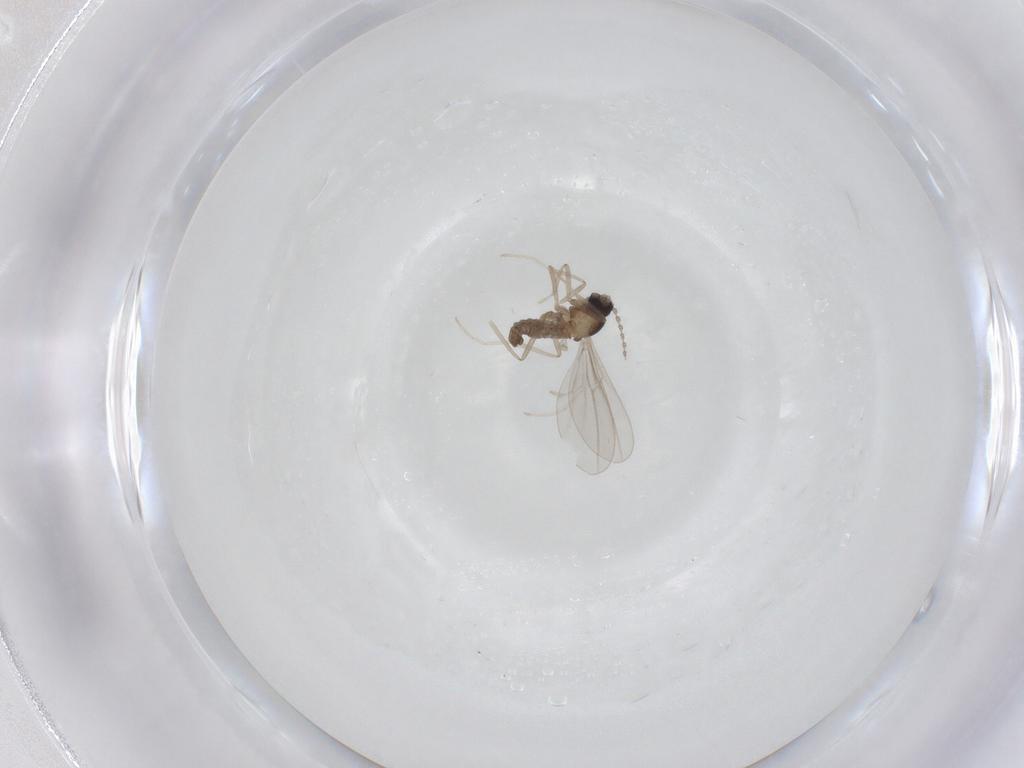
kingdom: Animalia
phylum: Arthropoda
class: Insecta
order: Diptera
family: Cecidomyiidae
